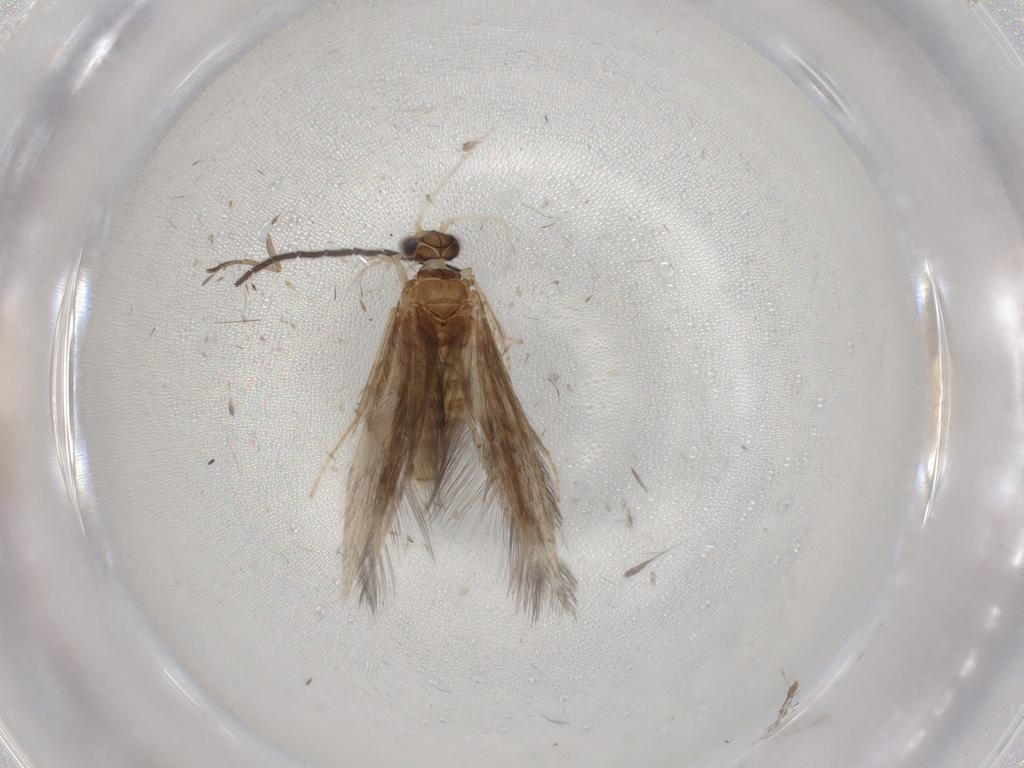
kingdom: Animalia
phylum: Arthropoda
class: Insecta
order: Trichoptera
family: Hydroptilidae
